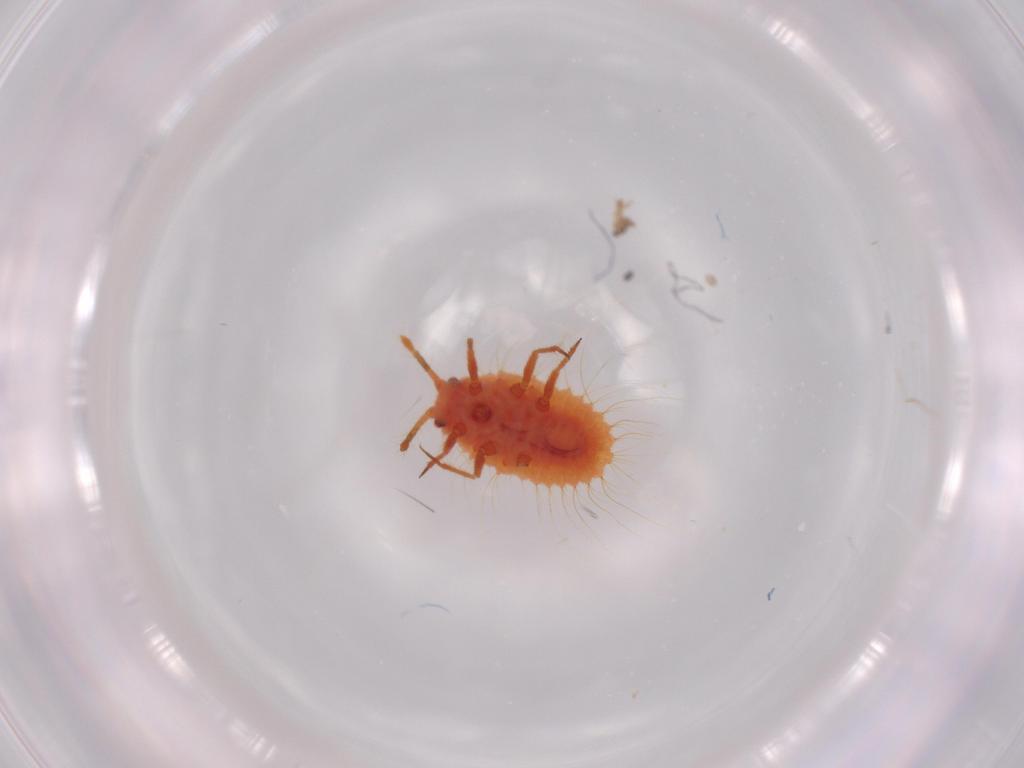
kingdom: Animalia
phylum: Arthropoda
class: Insecta
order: Hemiptera
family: Coccoidea_incertae_sedis
